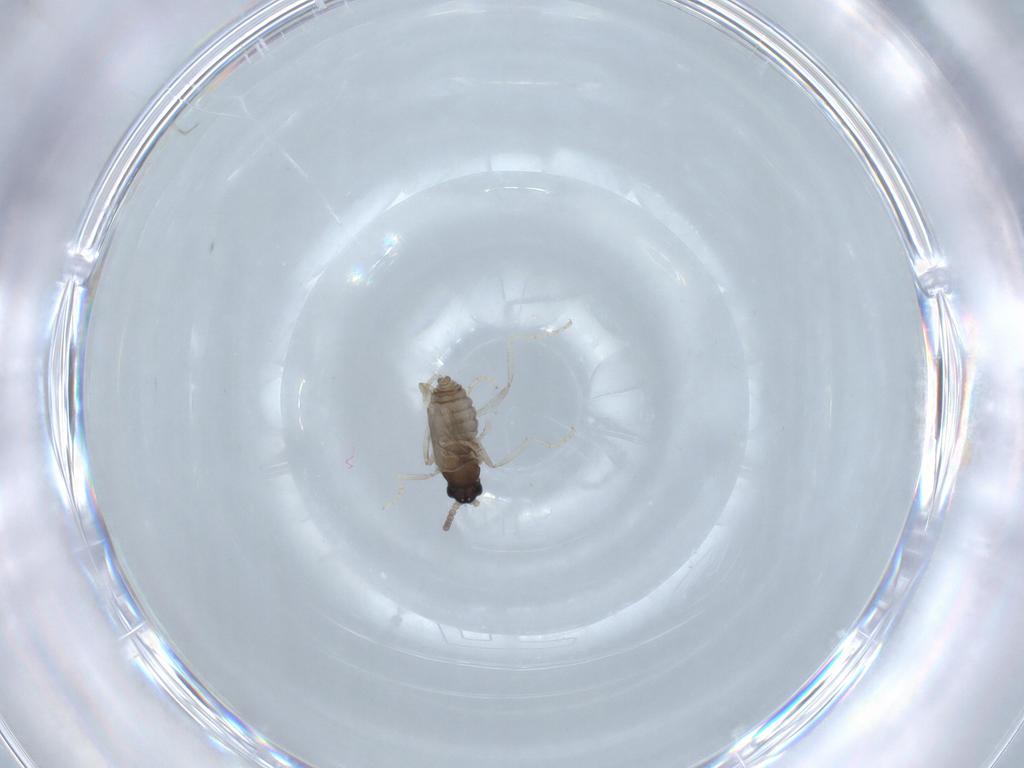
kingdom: Animalia
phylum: Arthropoda
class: Insecta
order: Diptera
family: Cecidomyiidae
